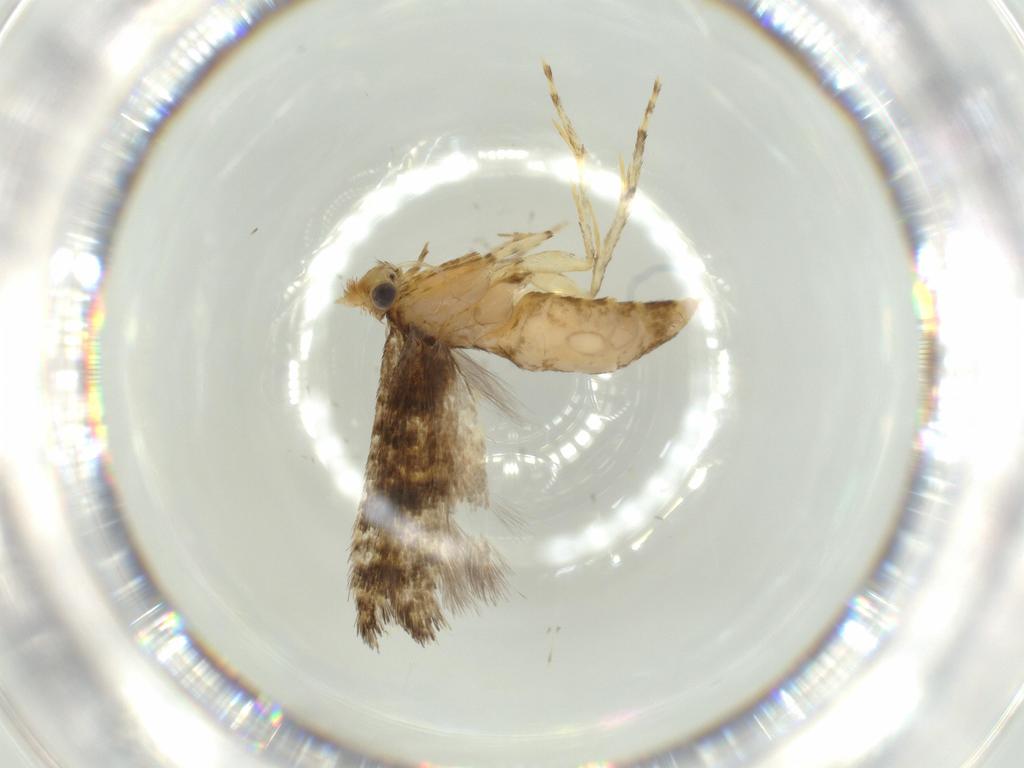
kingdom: Animalia
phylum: Arthropoda
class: Insecta
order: Lepidoptera
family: Argyresthiidae
